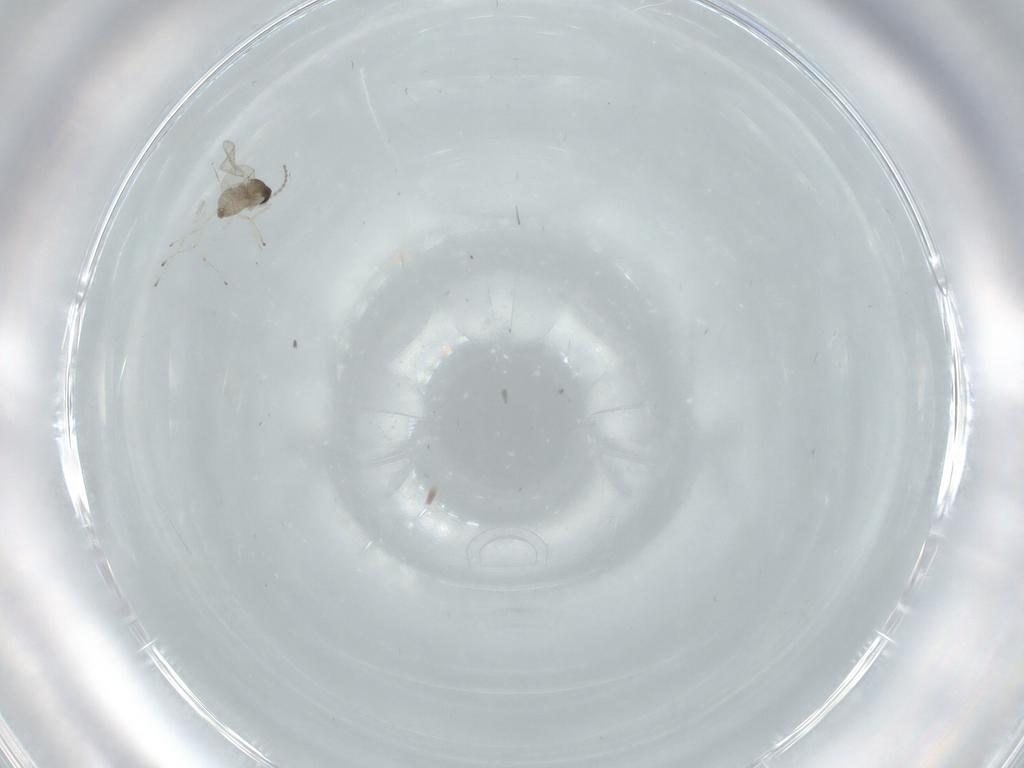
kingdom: Animalia
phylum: Arthropoda
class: Insecta
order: Diptera
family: Cecidomyiidae
